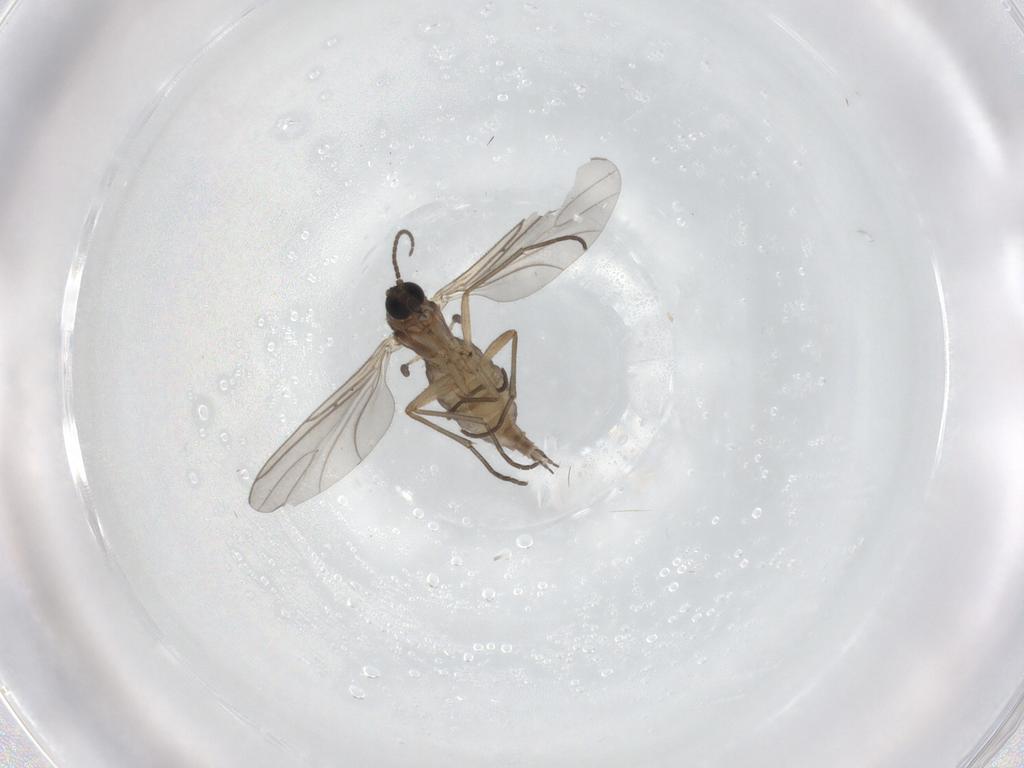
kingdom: Animalia
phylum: Arthropoda
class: Insecta
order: Diptera
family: Sciaridae
